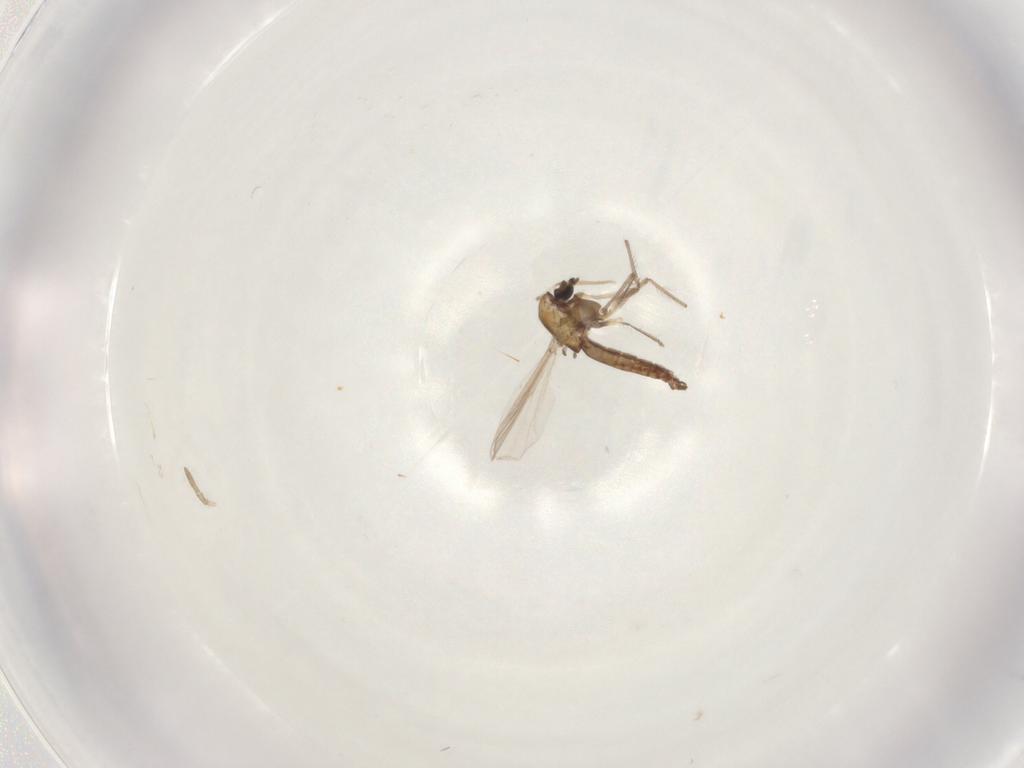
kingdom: Animalia
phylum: Arthropoda
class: Insecta
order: Diptera
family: Chironomidae
